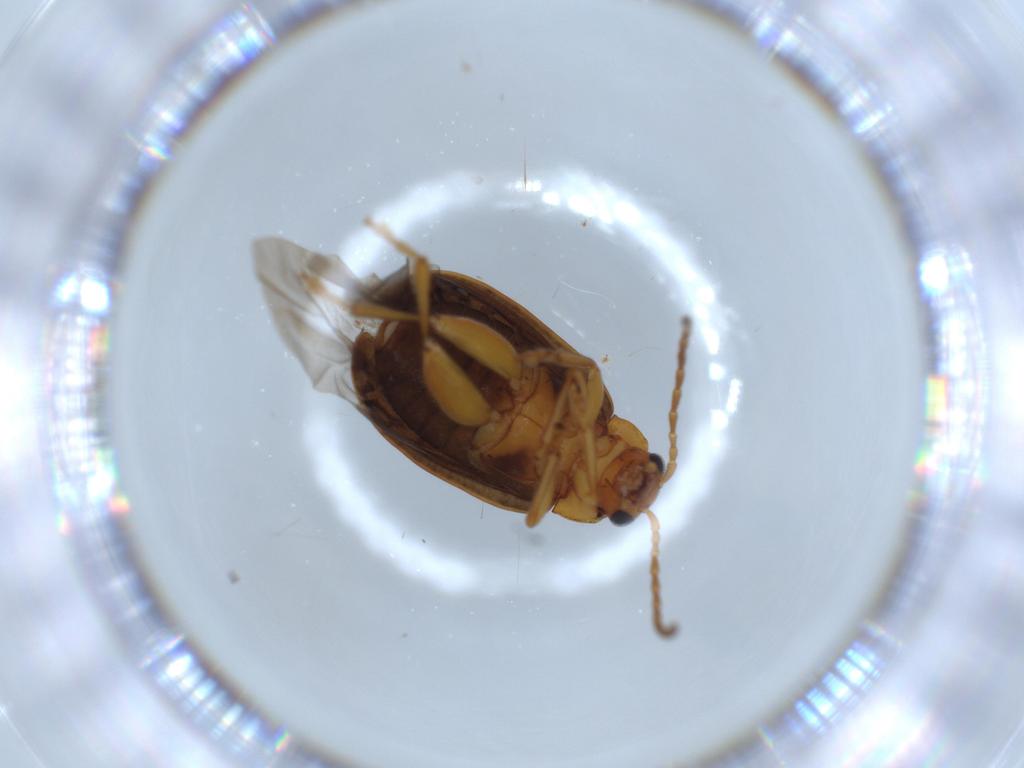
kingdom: Animalia
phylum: Arthropoda
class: Insecta
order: Coleoptera
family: Chrysomelidae
